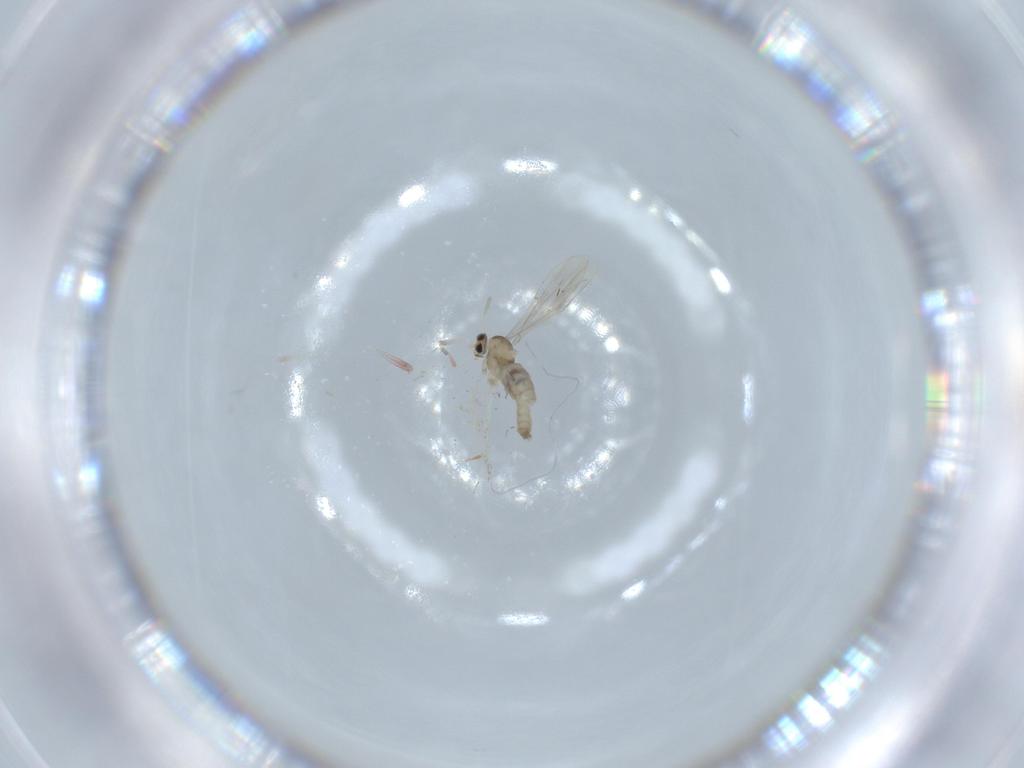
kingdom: Animalia
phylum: Arthropoda
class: Insecta
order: Diptera
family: Cecidomyiidae
